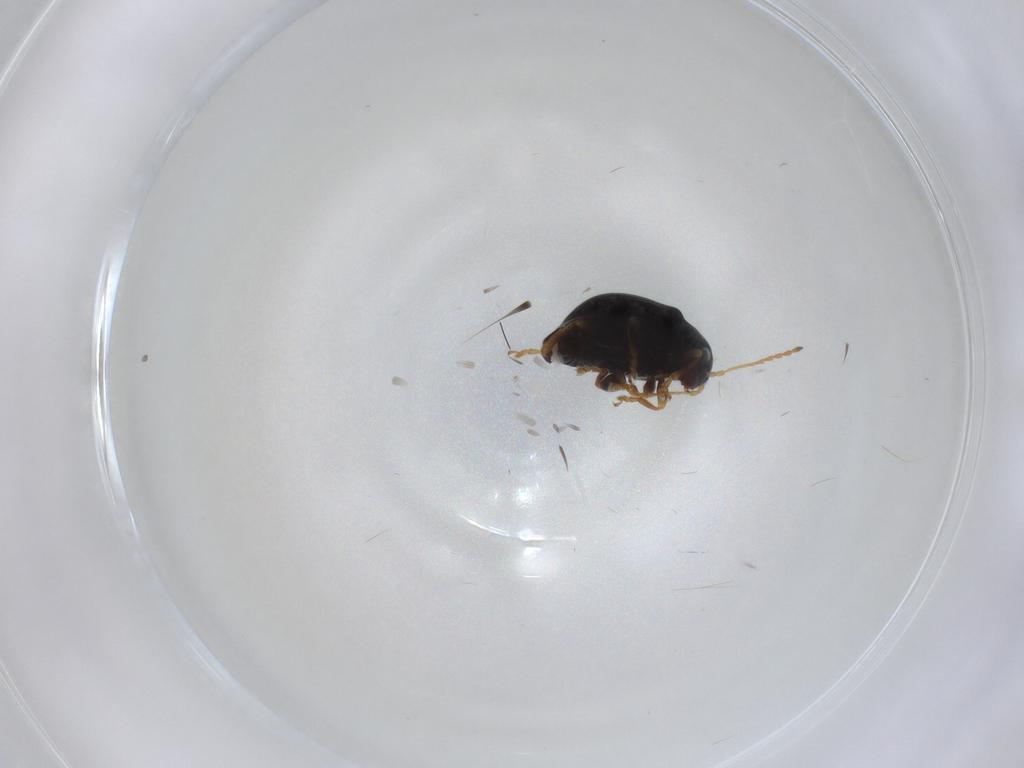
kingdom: Animalia
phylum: Arthropoda
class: Insecta
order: Coleoptera
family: Chrysomelidae
